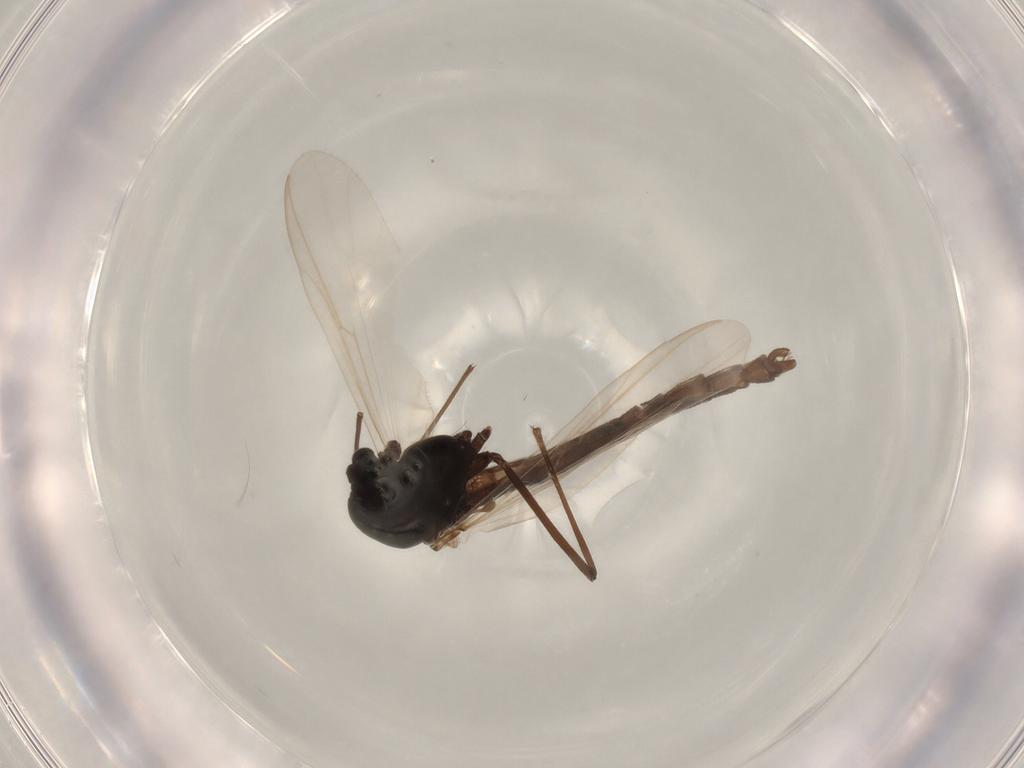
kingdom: Animalia
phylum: Arthropoda
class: Insecta
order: Diptera
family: Chironomidae
